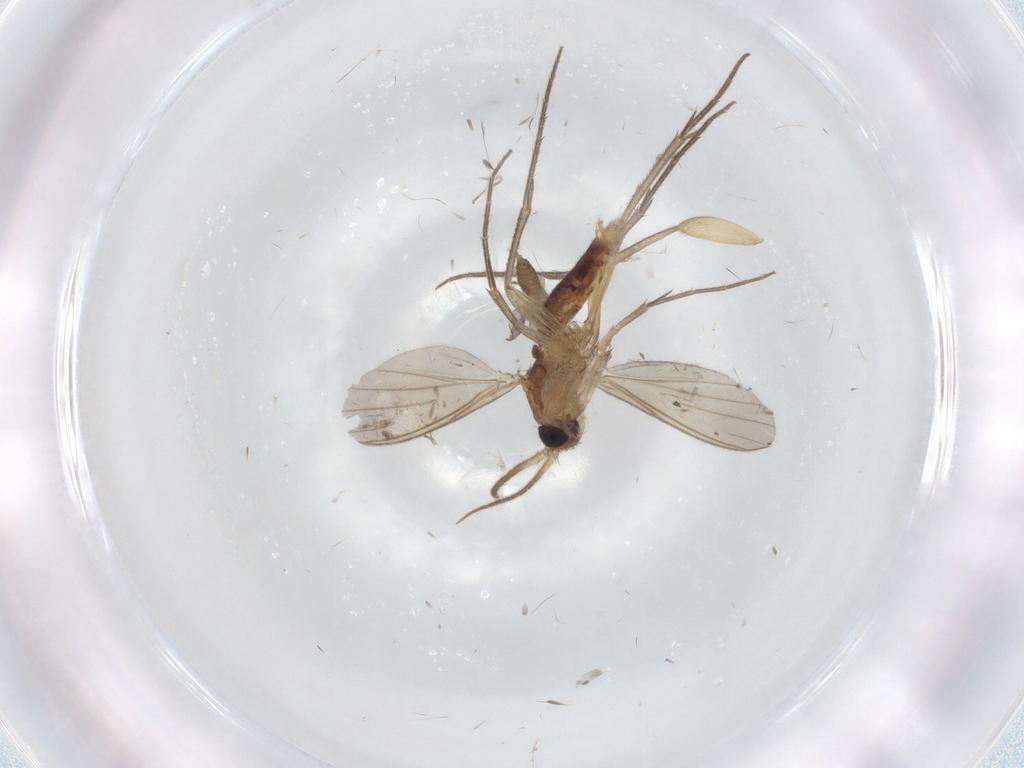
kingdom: Animalia
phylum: Arthropoda
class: Insecta
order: Diptera
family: Mycetophilidae
